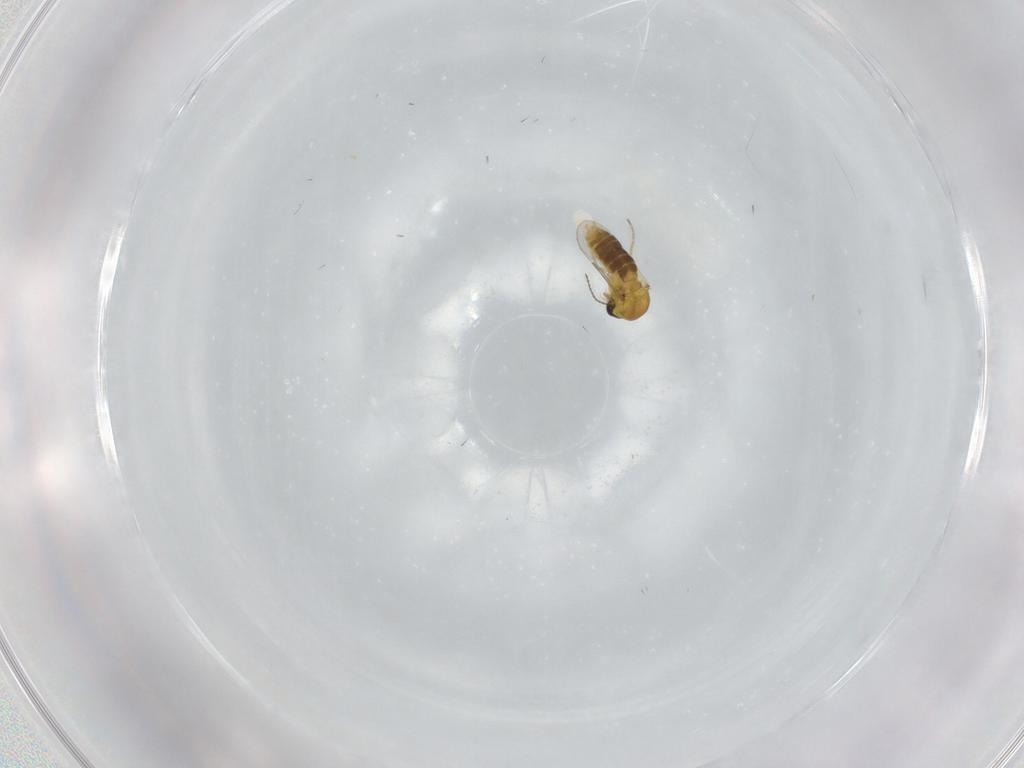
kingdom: Animalia
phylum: Arthropoda
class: Insecta
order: Diptera
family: Ceratopogonidae
